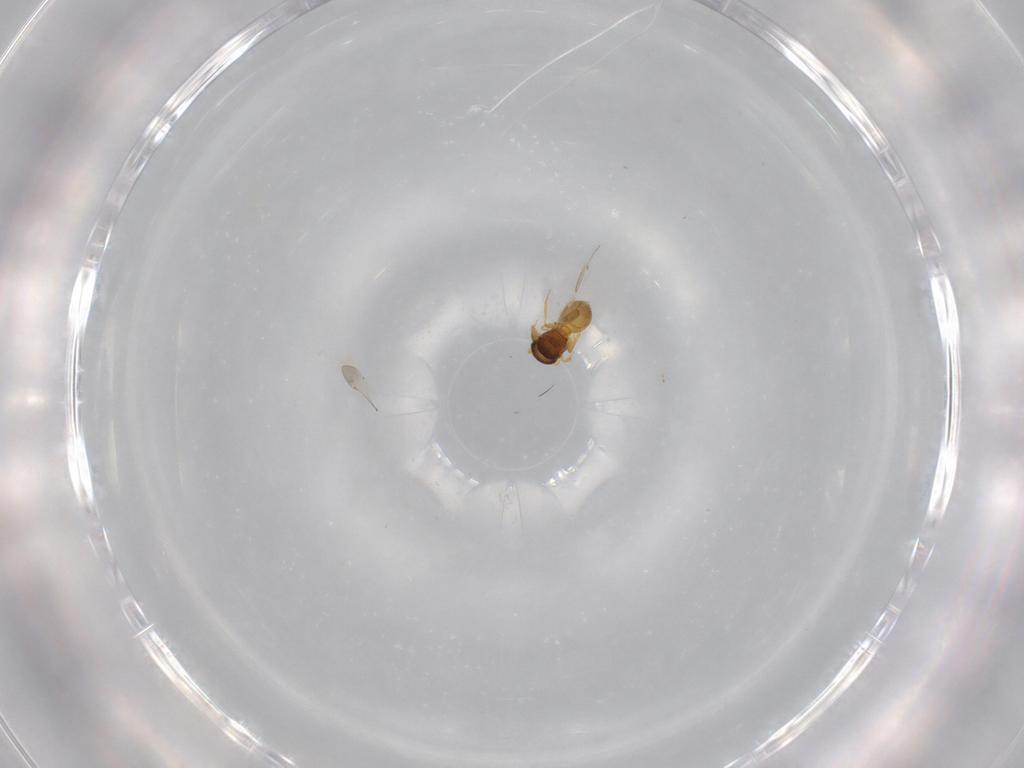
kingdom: Animalia
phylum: Arthropoda
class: Insecta
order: Hymenoptera
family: Scelionidae
